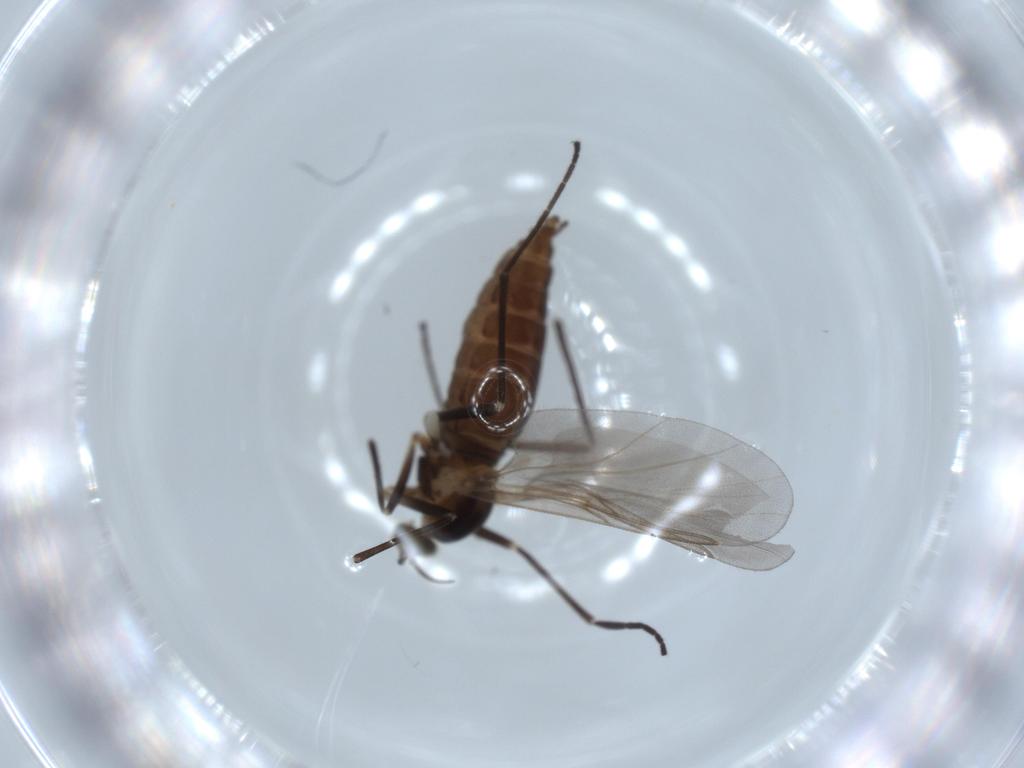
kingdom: Animalia
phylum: Arthropoda
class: Insecta
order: Diptera
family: Cecidomyiidae
